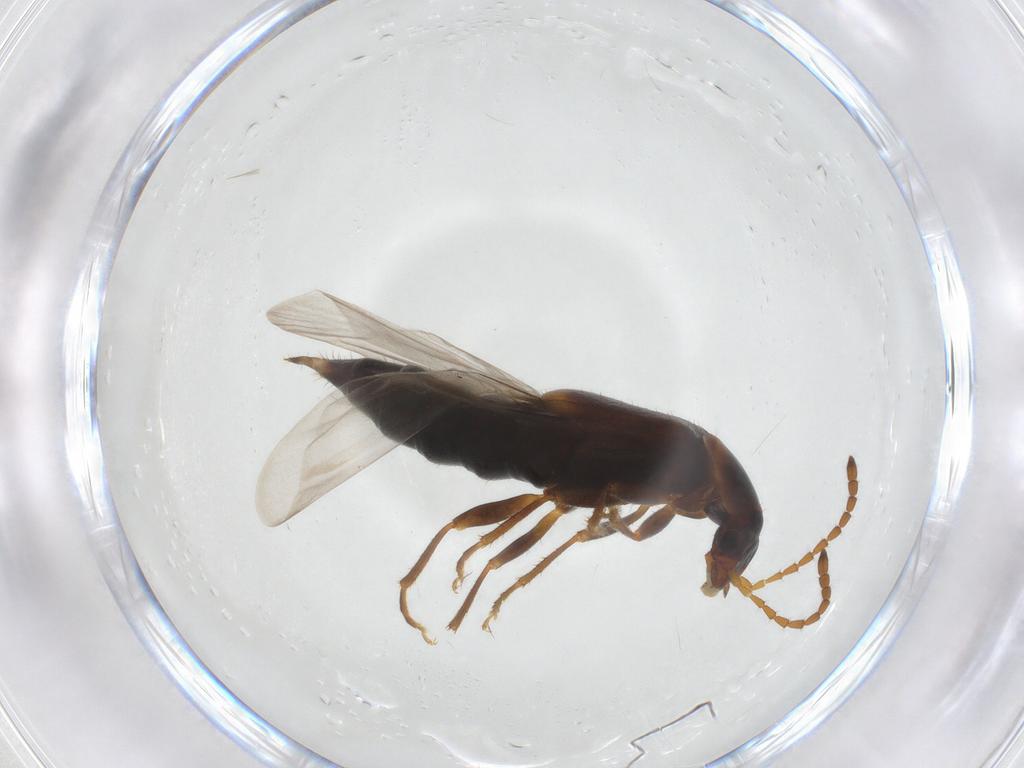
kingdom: Animalia
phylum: Arthropoda
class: Insecta
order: Coleoptera
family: Staphylinidae
